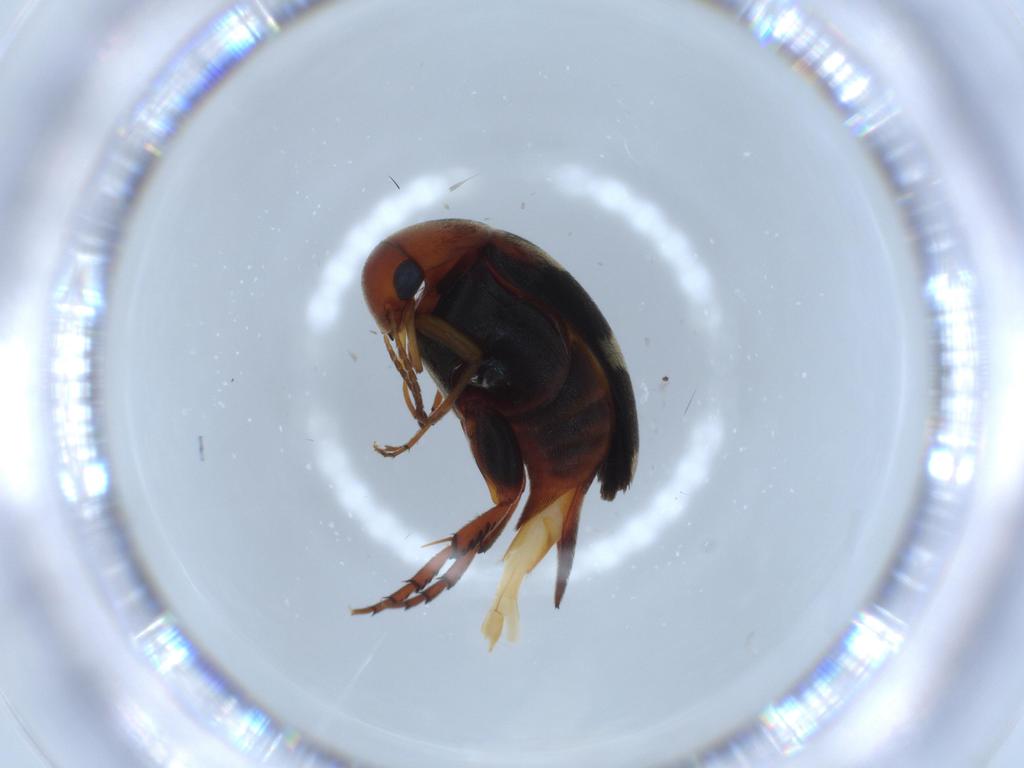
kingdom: Animalia
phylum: Arthropoda
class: Insecta
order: Coleoptera
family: Mordellidae
